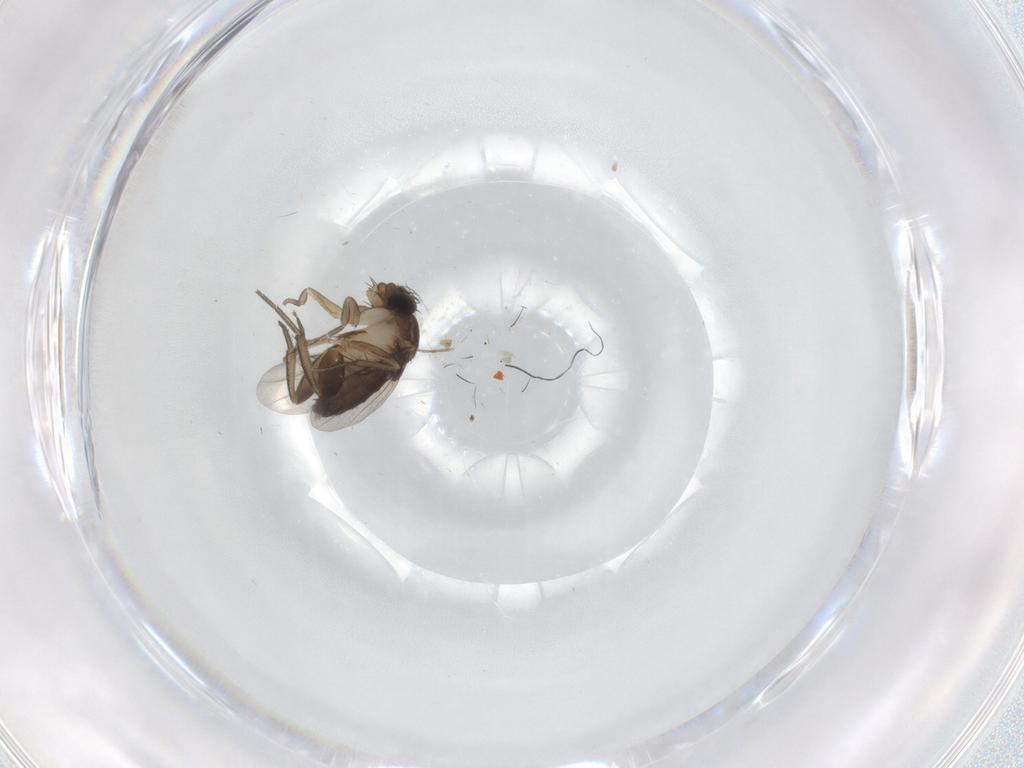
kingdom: Animalia
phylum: Arthropoda
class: Insecta
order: Diptera
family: Phoridae
